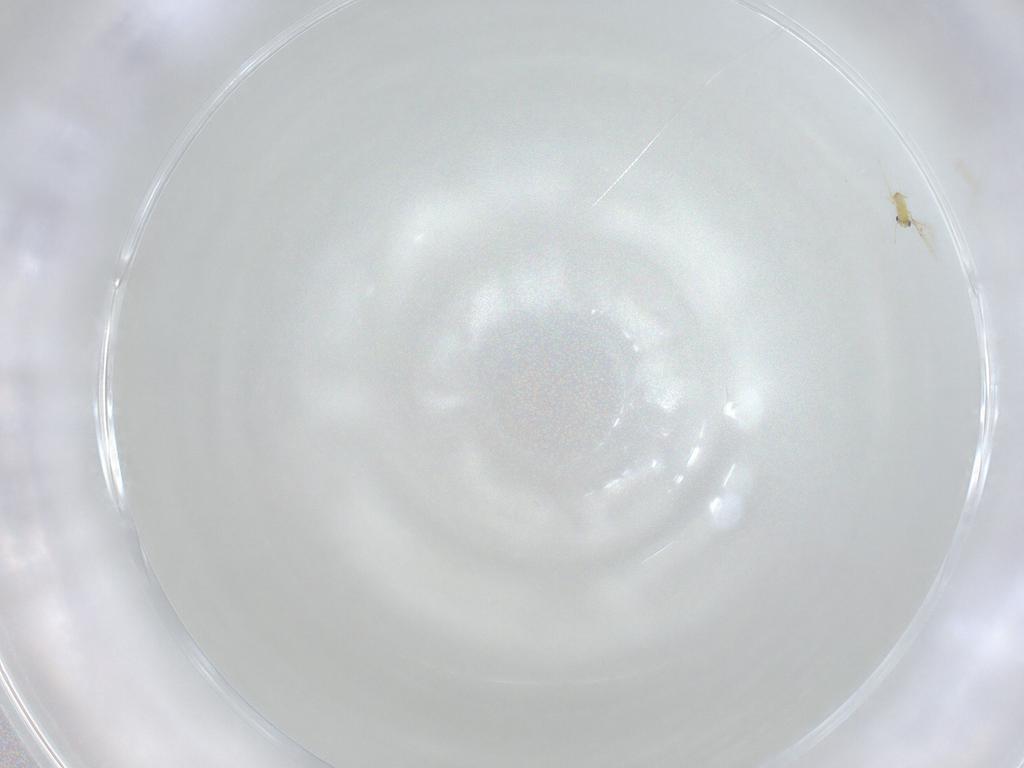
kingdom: Animalia
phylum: Arthropoda
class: Insecta
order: Hymenoptera
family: Trichogrammatidae
